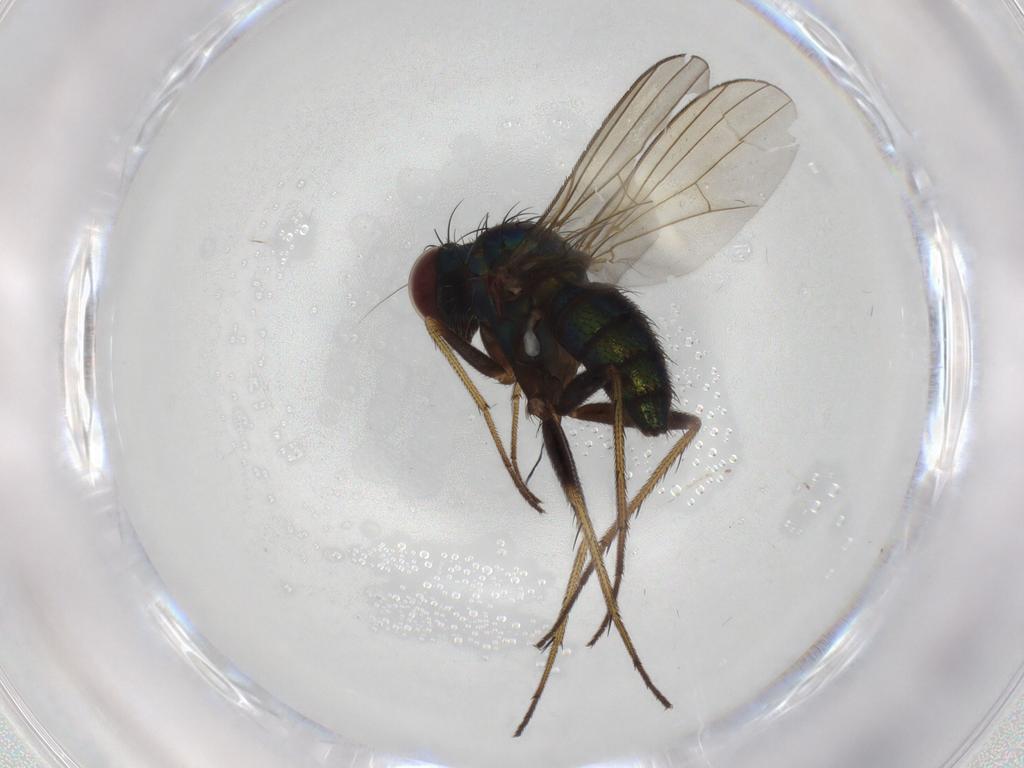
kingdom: Animalia
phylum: Arthropoda
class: Insecta
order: Diptera
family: Dolichopodidae
